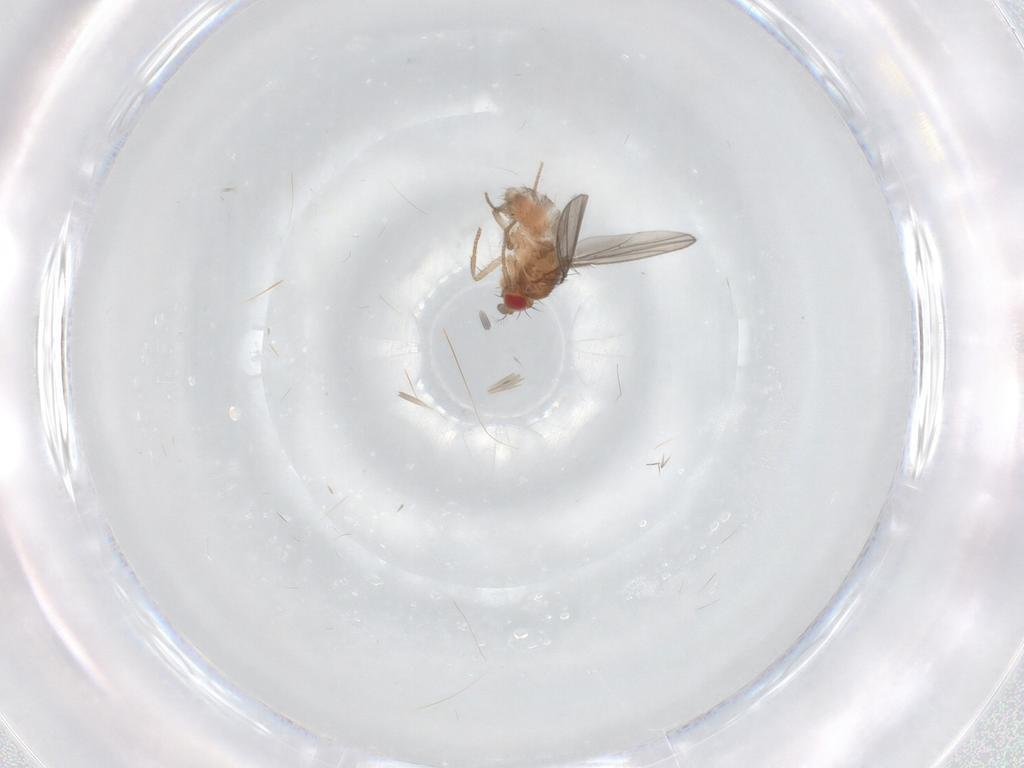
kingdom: Animalia
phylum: Arthropoda
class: Insecta
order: Diptera
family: Drosophilidae
